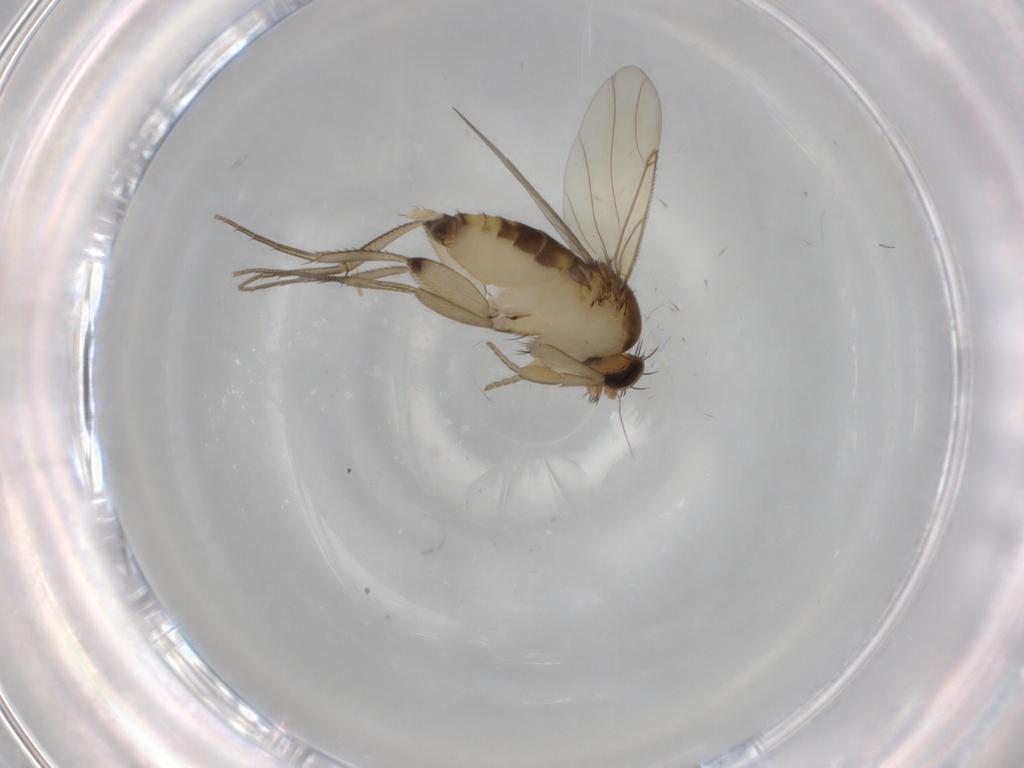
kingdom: Animalia
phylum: Arthropoda
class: Insecta
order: Diptera
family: Phoridae
